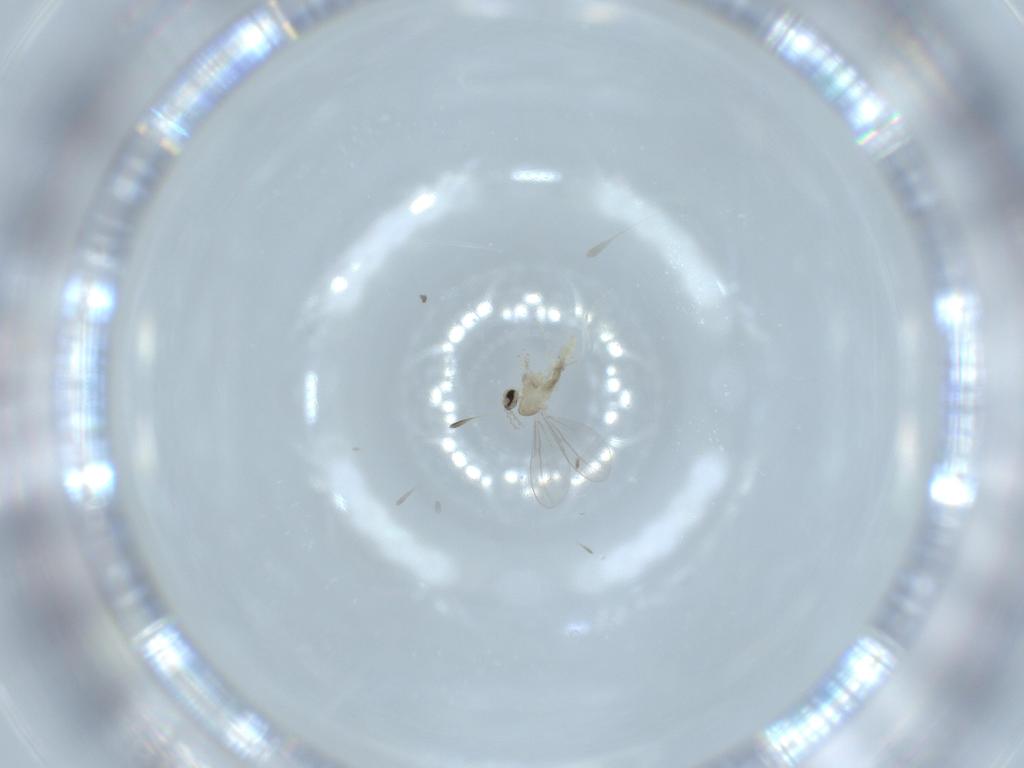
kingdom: Animalia
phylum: Arthropoda
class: Insecta
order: Diptera
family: Cecidomyiidae
